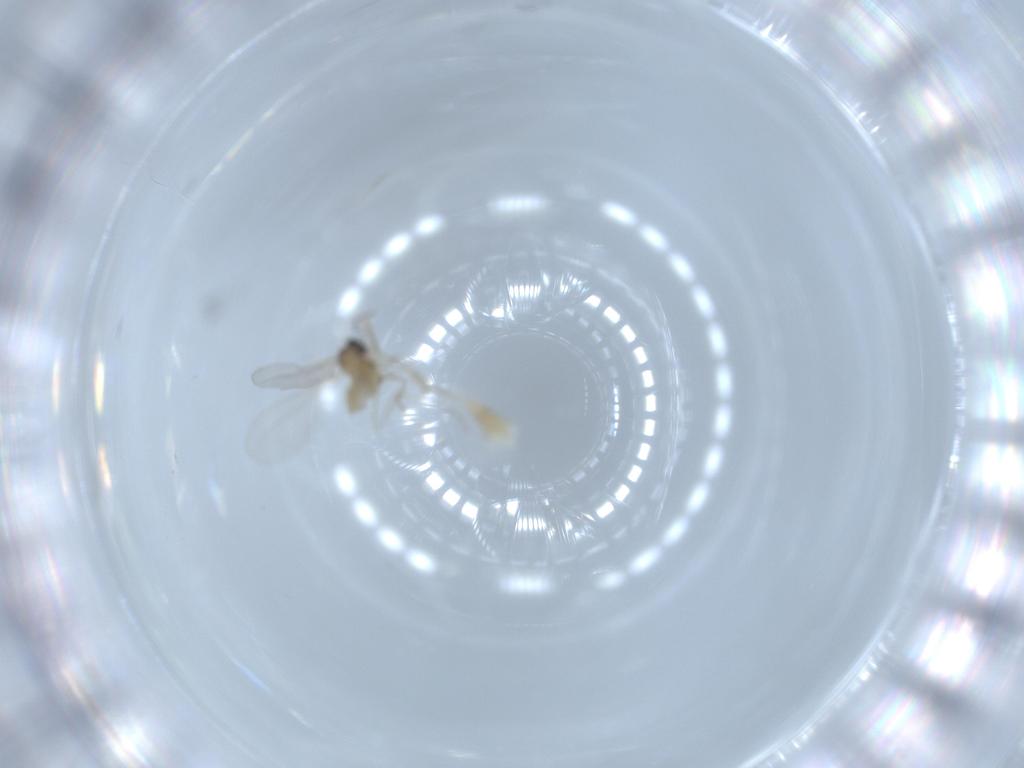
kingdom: Animalia
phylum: Arthropoda
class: Insecta
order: Diptera
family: Cecidomyiidae
